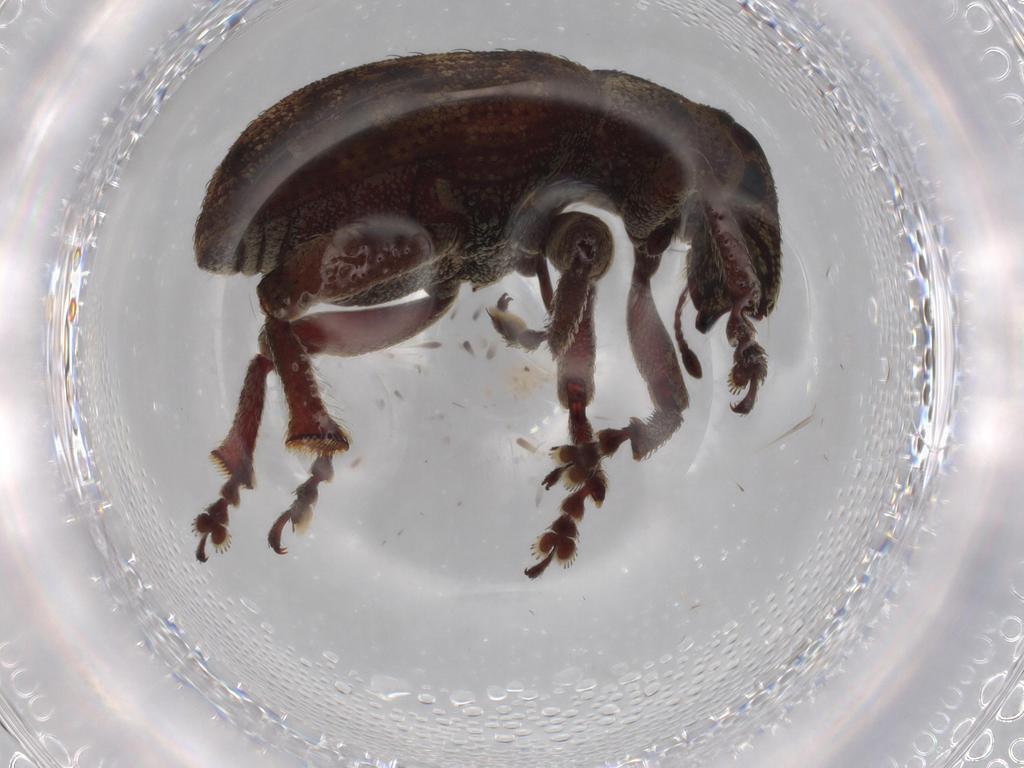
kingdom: Animalia
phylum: Arthropoda
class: Insecta
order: Coleoptera
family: Curculionidae
